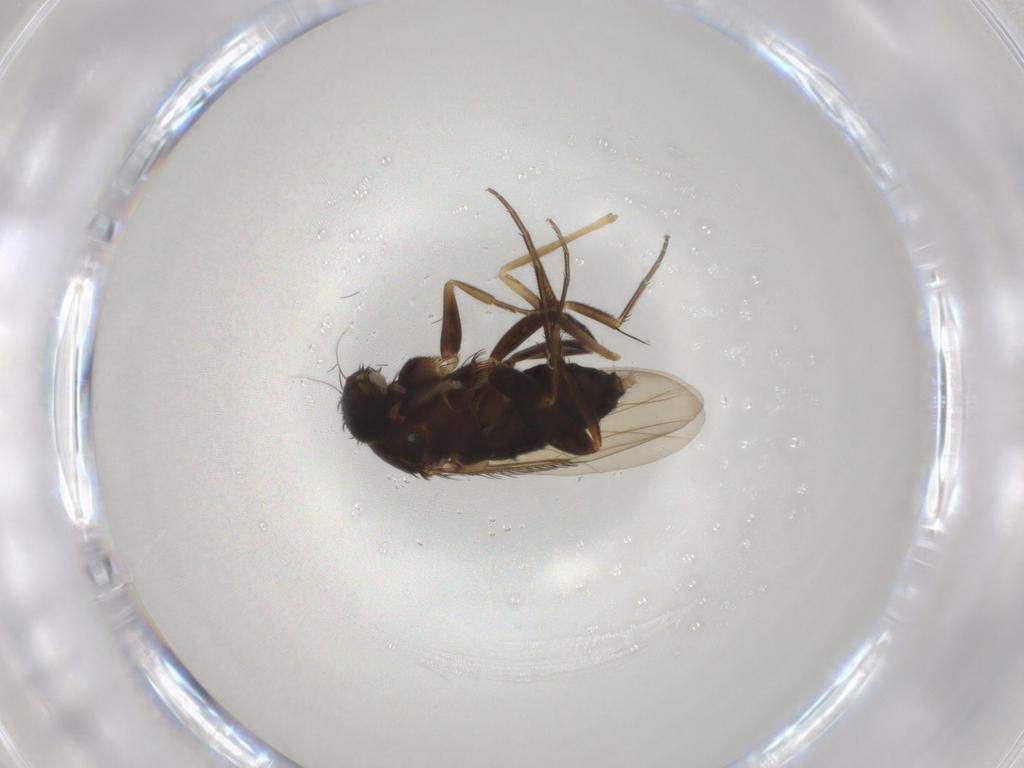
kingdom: Animalia
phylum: Arthropoda
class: Insecta
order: Diptera
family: Phoridae
